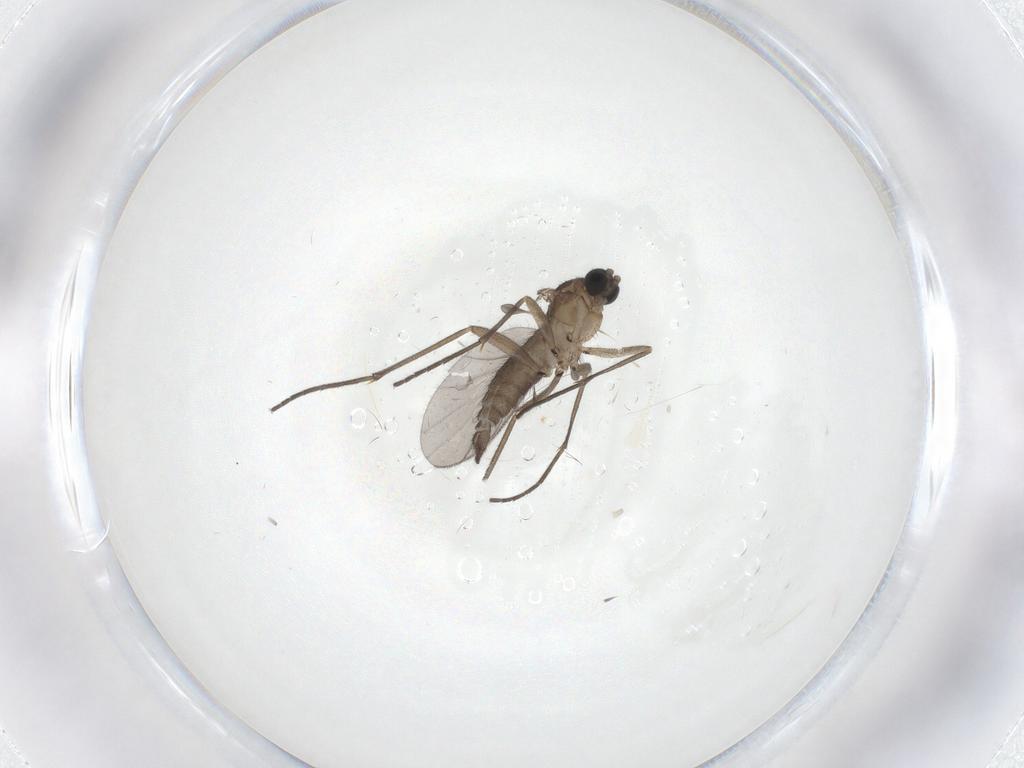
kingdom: Animalia
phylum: Arthropoda
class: Insecta
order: Diptera
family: Sciaridae
